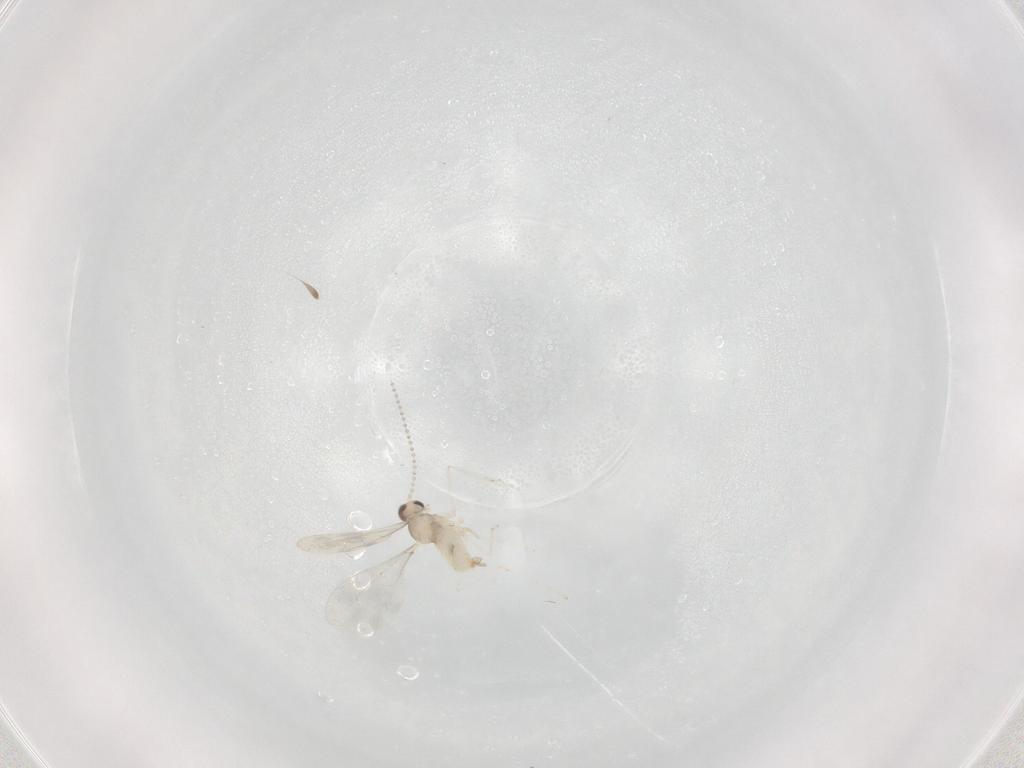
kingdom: Animalia
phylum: Arthropoda
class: Insecta
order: Diptera
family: Cecidomyiidae
